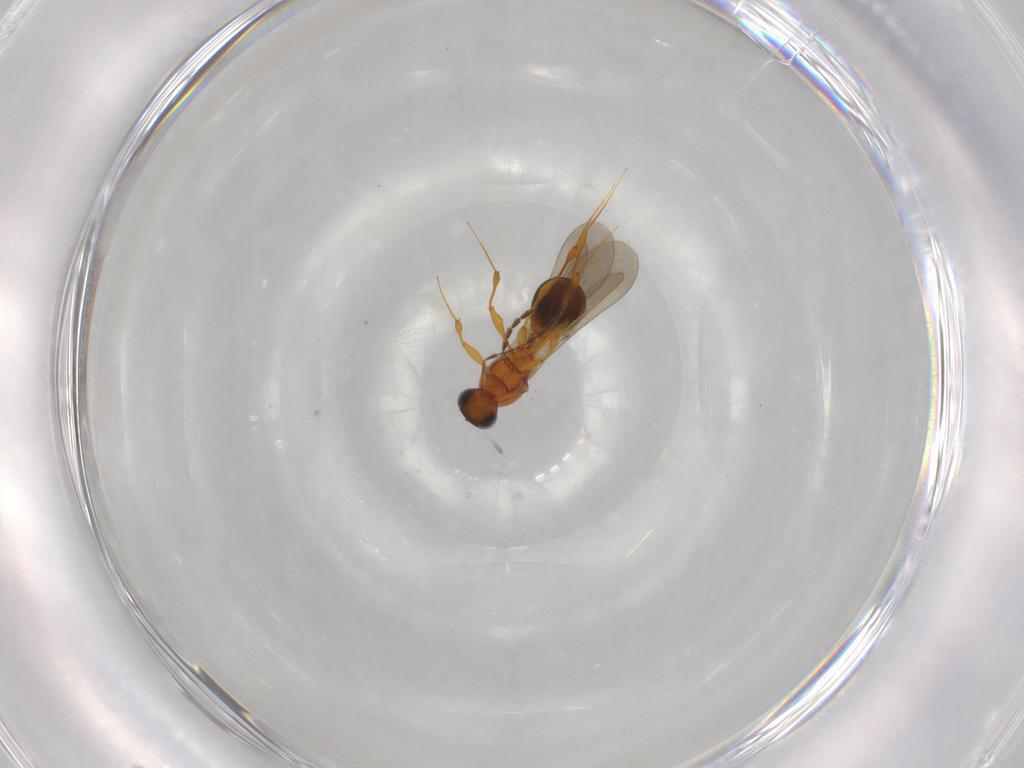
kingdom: Animalia
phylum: Arthropoda
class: Insecta
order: Hymenoptera
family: Platygastridae
